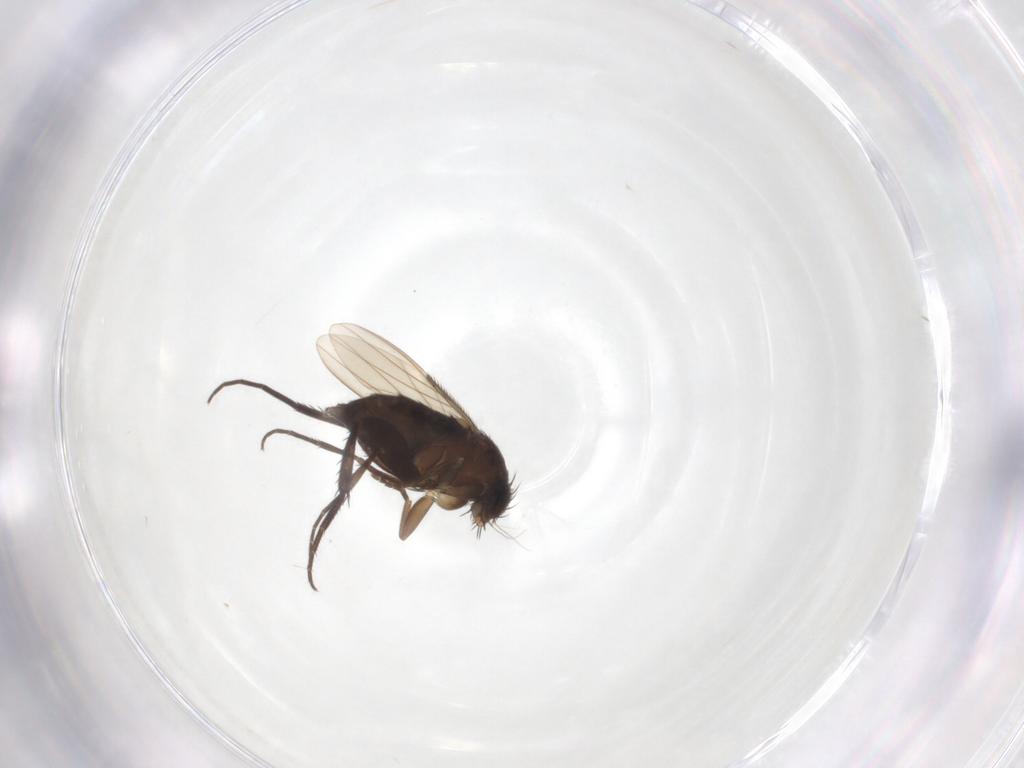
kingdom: Animalia
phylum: Arthropoda
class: Insecta
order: Diptera
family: Phoridae
